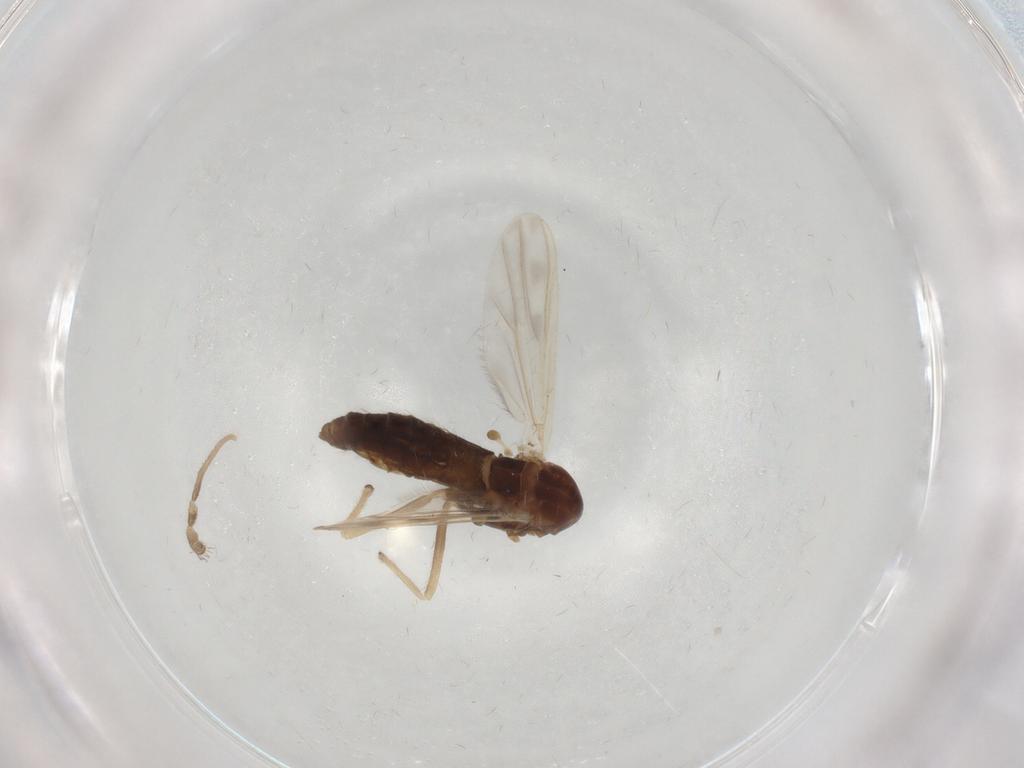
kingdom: Animalia
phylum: Arthropoda
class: Insecta
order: Diptera
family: Chironomidae
